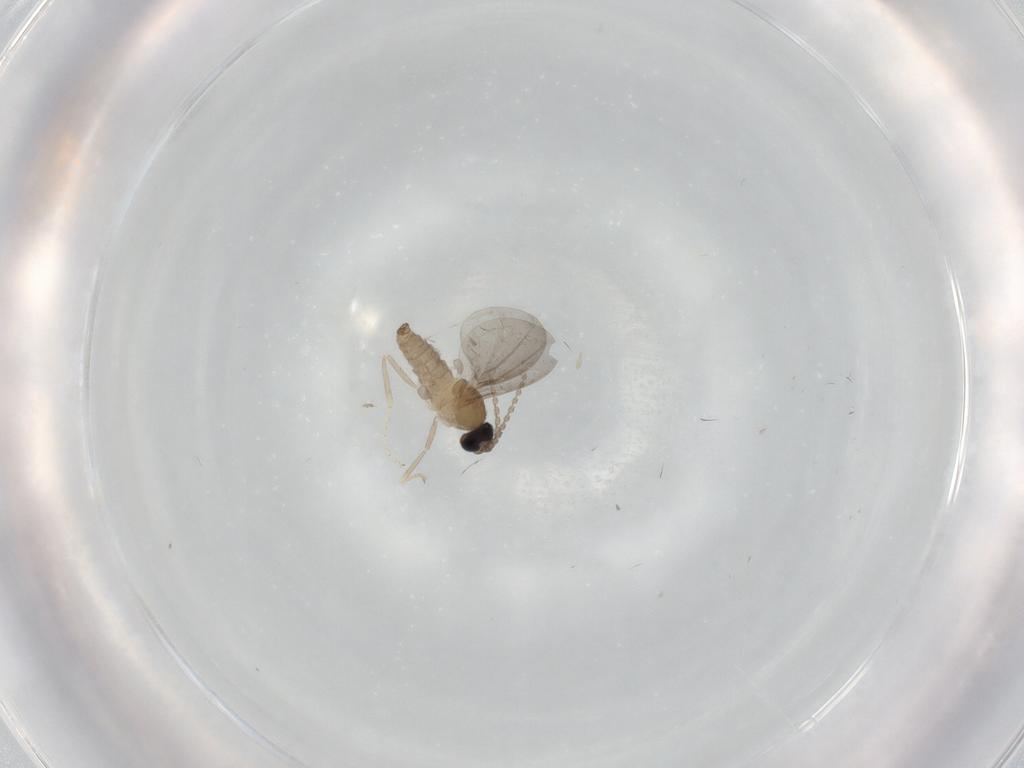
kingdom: Animalia
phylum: Arthropoda
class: Insecta
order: Diptera
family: Cecidomyiidae
